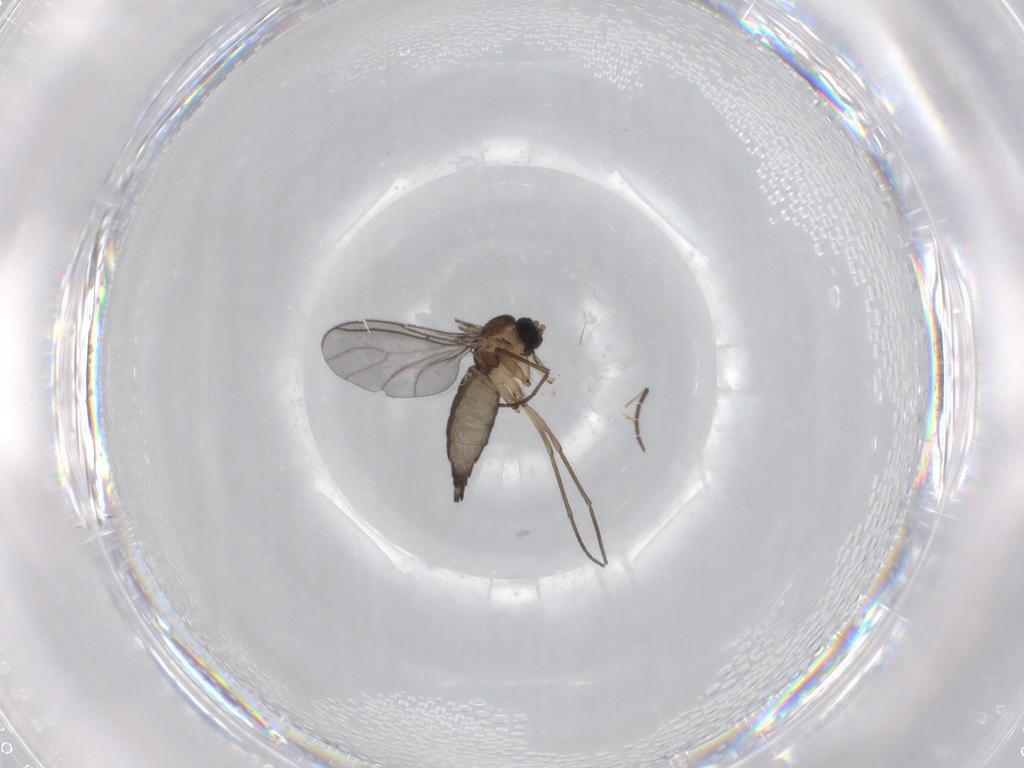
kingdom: Animalia
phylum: Arthropoda
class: Insecta
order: Diptera
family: Sciaridae
